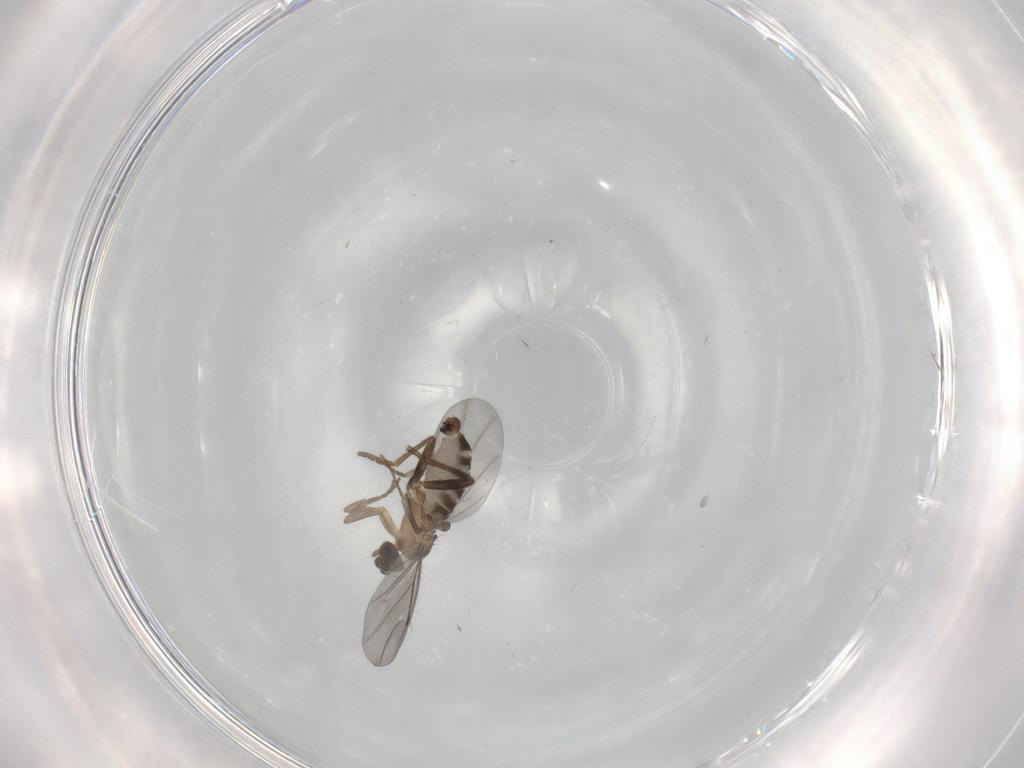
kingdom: Animalia
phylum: Arthropoda
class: Insecta
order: Diptera
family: Phoridae
